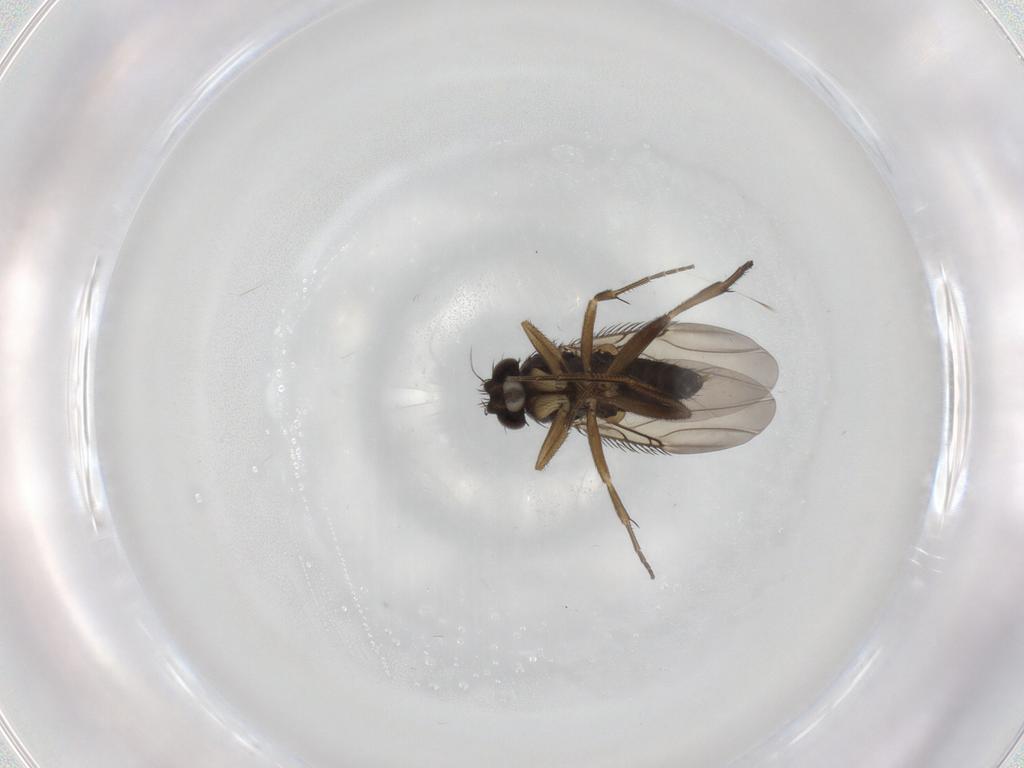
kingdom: Animalia
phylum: Arthropoda
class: Insecta
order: Diptera
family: Phoridae
